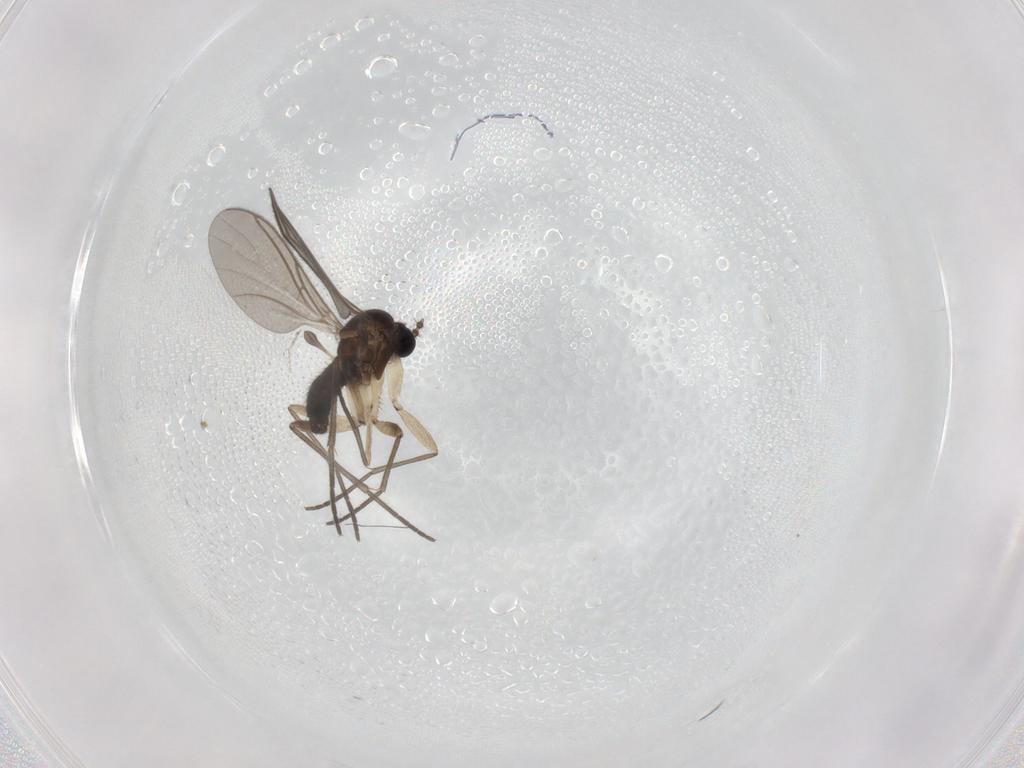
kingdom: Animalia
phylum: Arthropoda
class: Insecta
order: Diptera
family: Sciaridae
